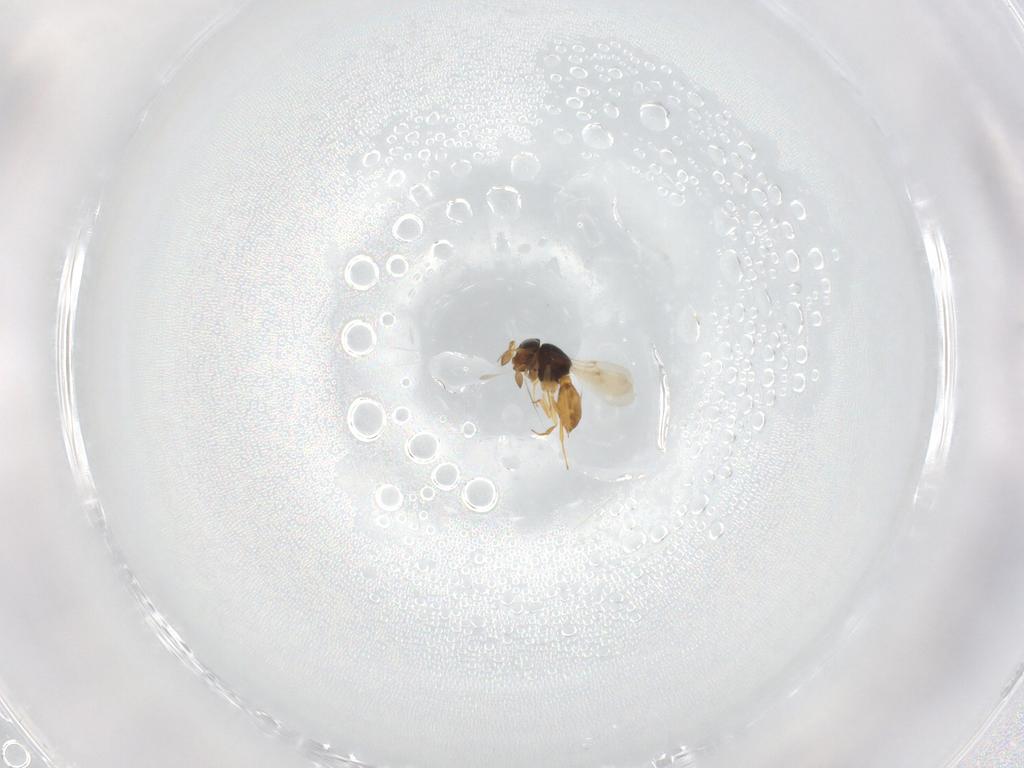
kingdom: Animalia
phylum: Arthropoda
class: Insecta
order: Hymenoptera
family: Scelionidae
